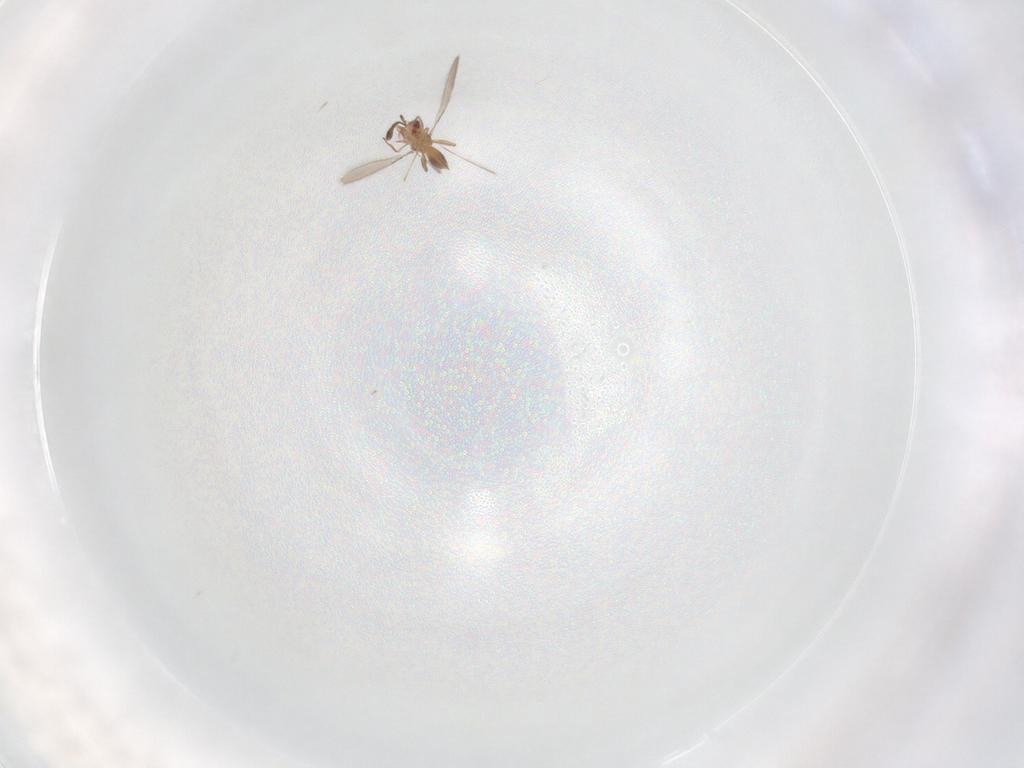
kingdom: Animalia
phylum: Arthropoda
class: Insecta
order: Hymenoptera
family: Mymaridae
